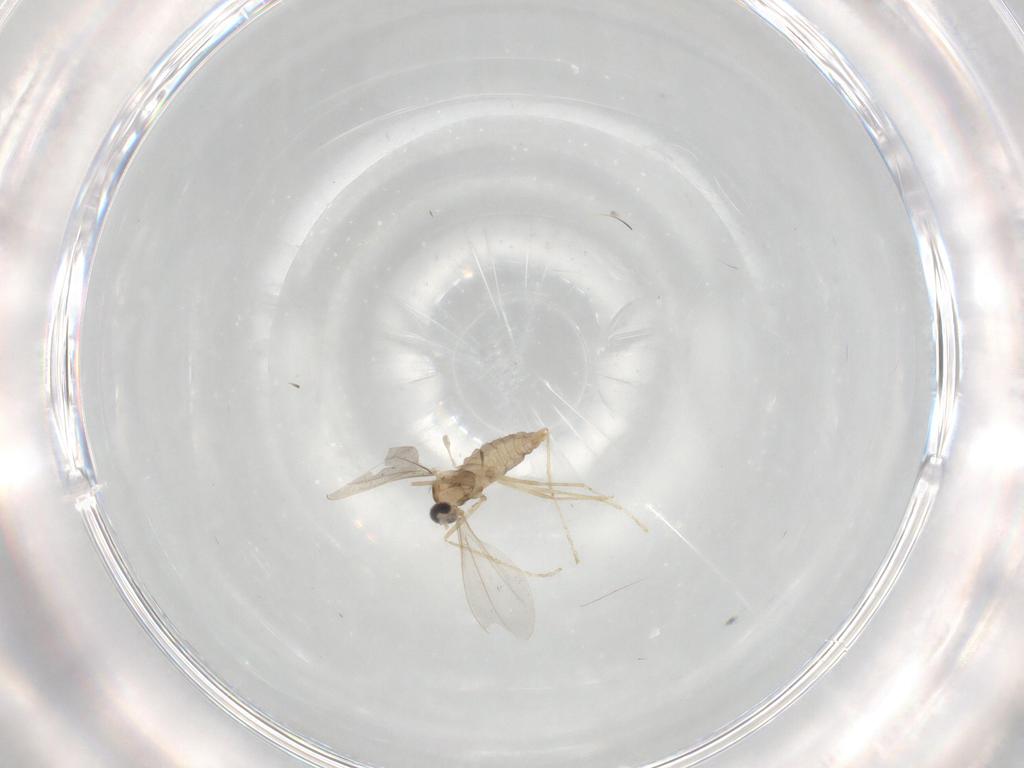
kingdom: Animalia
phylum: Arthropoda
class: Insecta
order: Diptera
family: Cecidomyiidae
